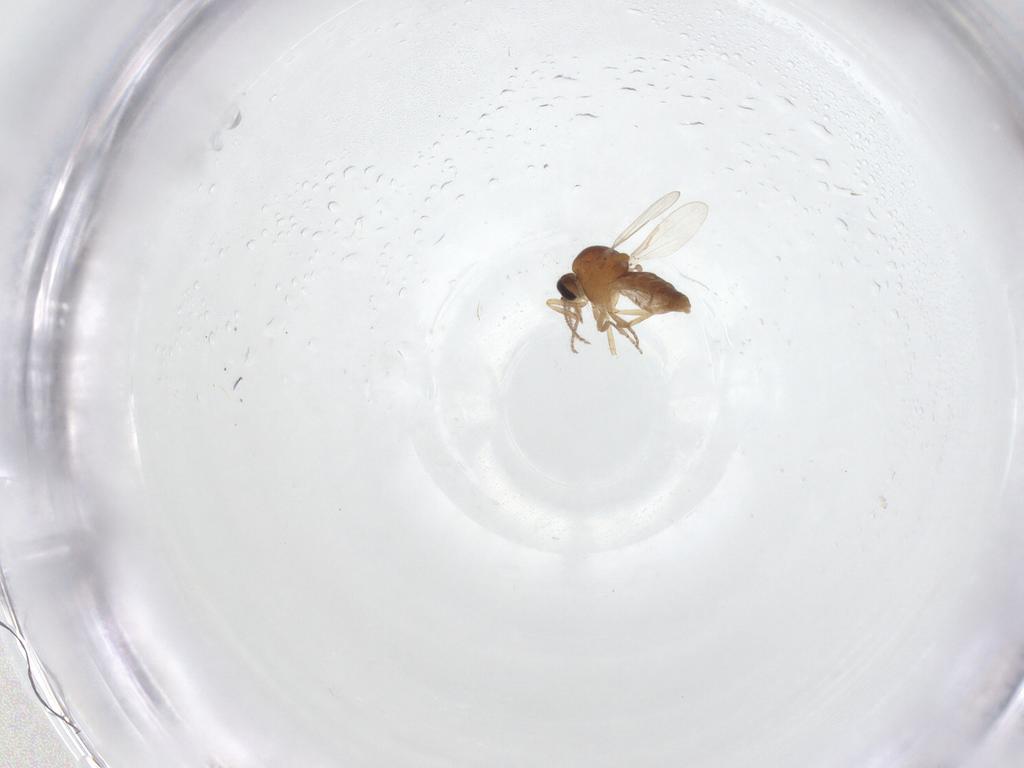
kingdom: Animalia
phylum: Arthropoda
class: Insecta
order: Diptera
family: Ceratopogonidae
